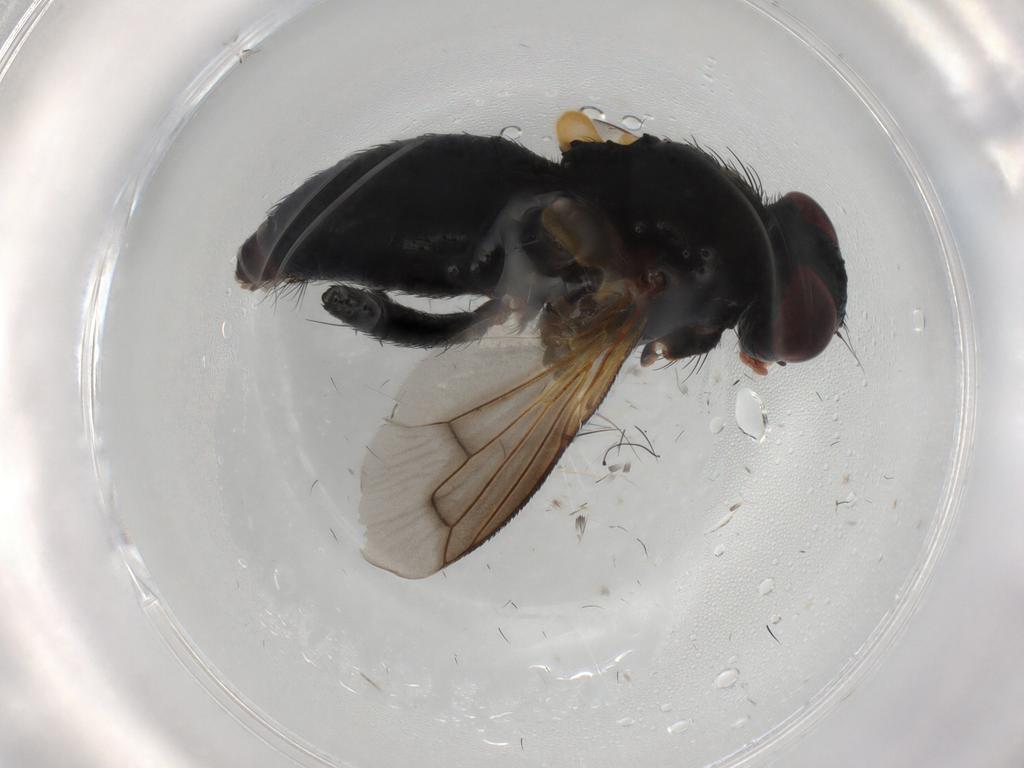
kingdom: Animalia
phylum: Arthropoda
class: Insecta
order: Diptera
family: Tachinidae
